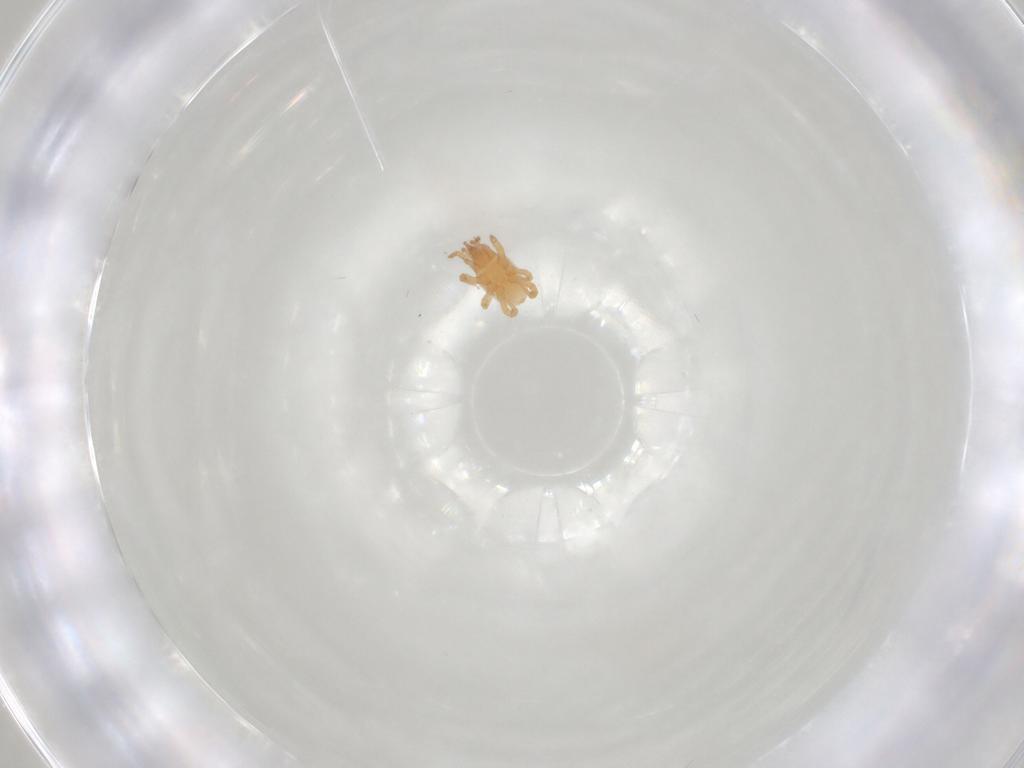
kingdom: Animalia
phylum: Arthropoda
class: Arachnida
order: Mesostigmata
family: Parasitidae
